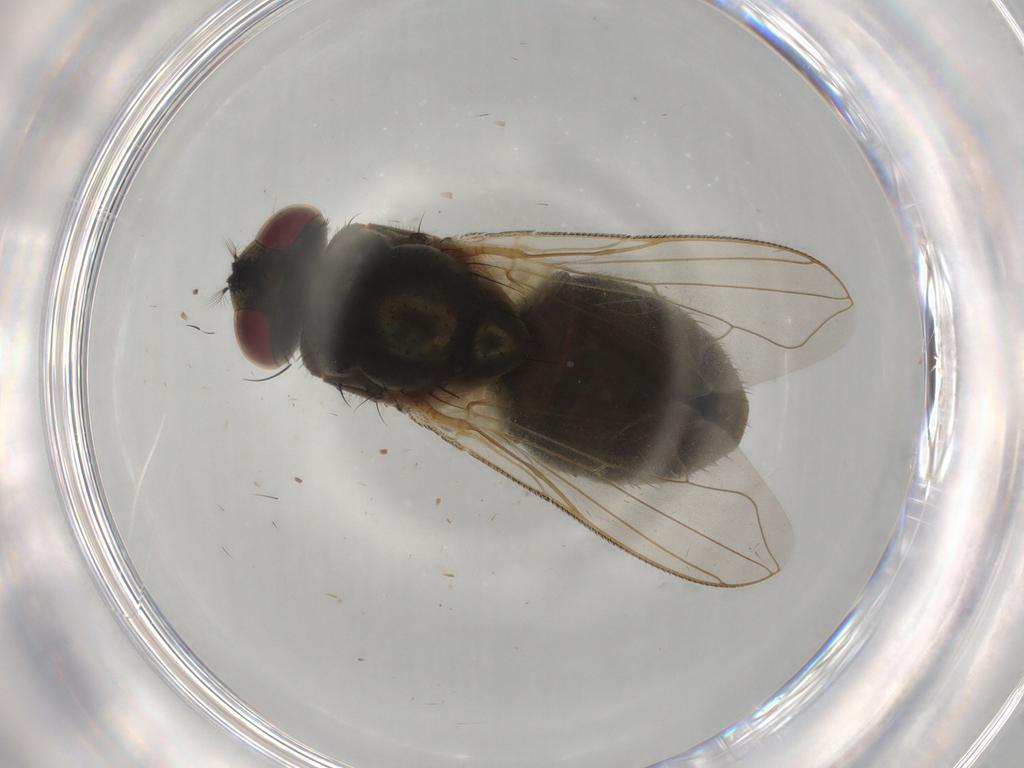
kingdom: Animalia
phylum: Arthropoda
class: Insecta
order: Diptera
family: Muscidae
